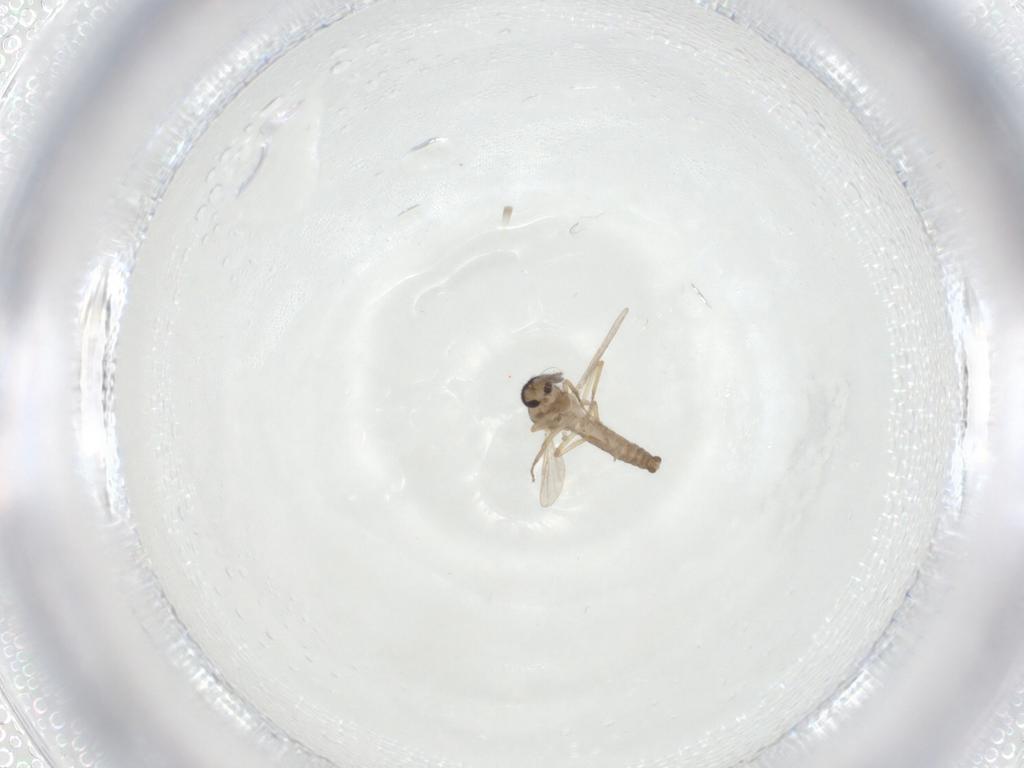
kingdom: Animalia
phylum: Arthropoda
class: Insecta
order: Diptera
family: Ceratopogonidae
